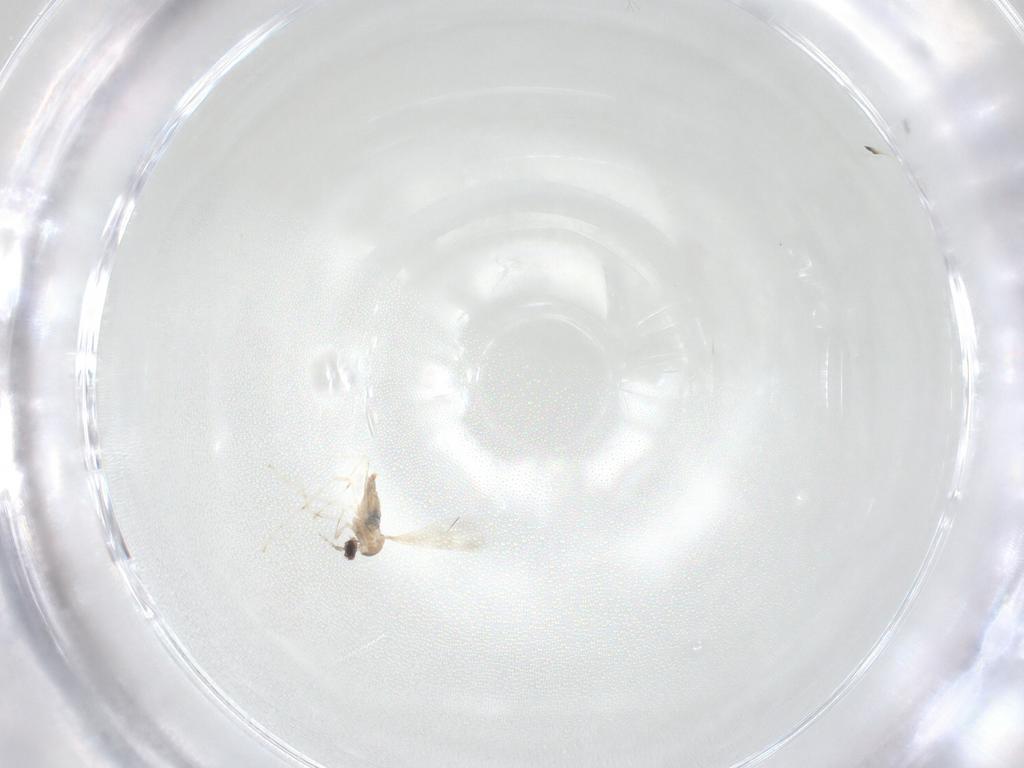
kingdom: Animalia
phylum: Arthropoda
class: Insecta
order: Diptera
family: Cecidomyiidae
